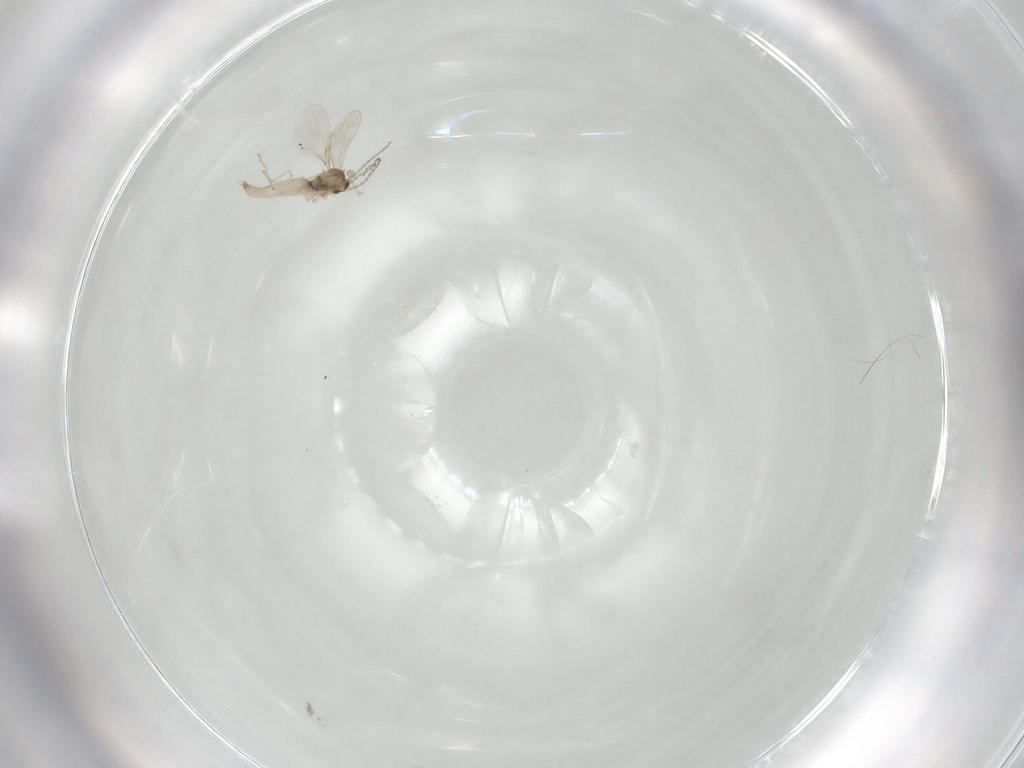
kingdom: Animalia
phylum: Arthropoda
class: Insecta
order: Diptera
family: Cecidomyiidae
